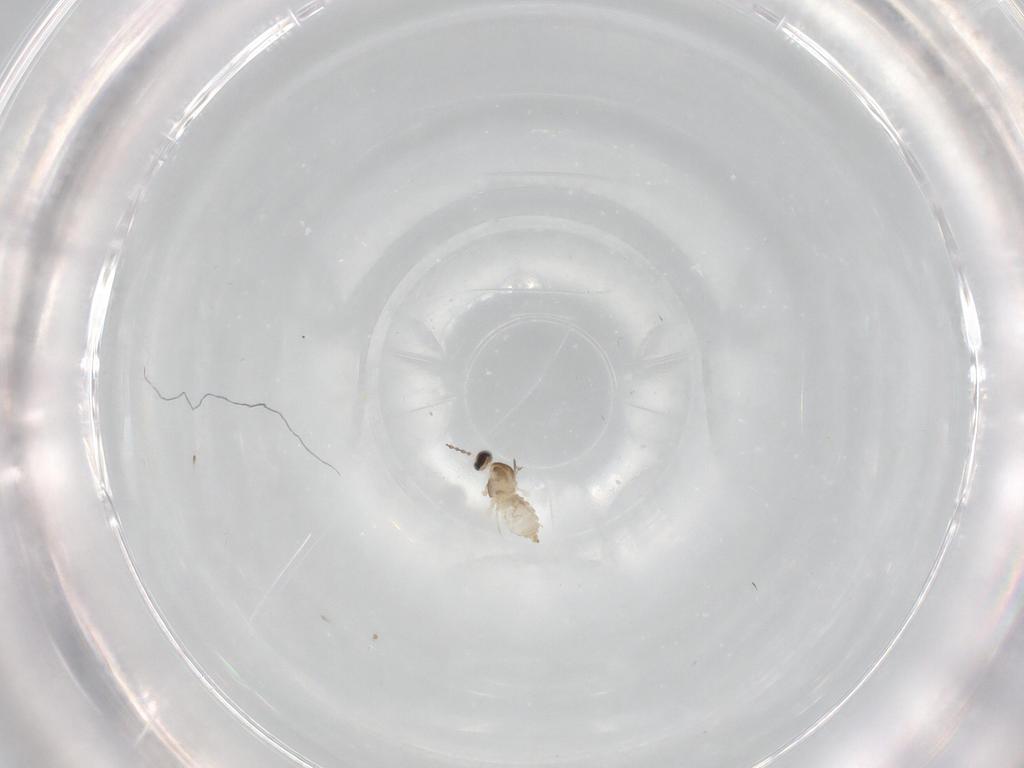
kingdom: Animalia
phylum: Arthropoda
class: Insecta
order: Diptera
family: Cecidomyiidae
